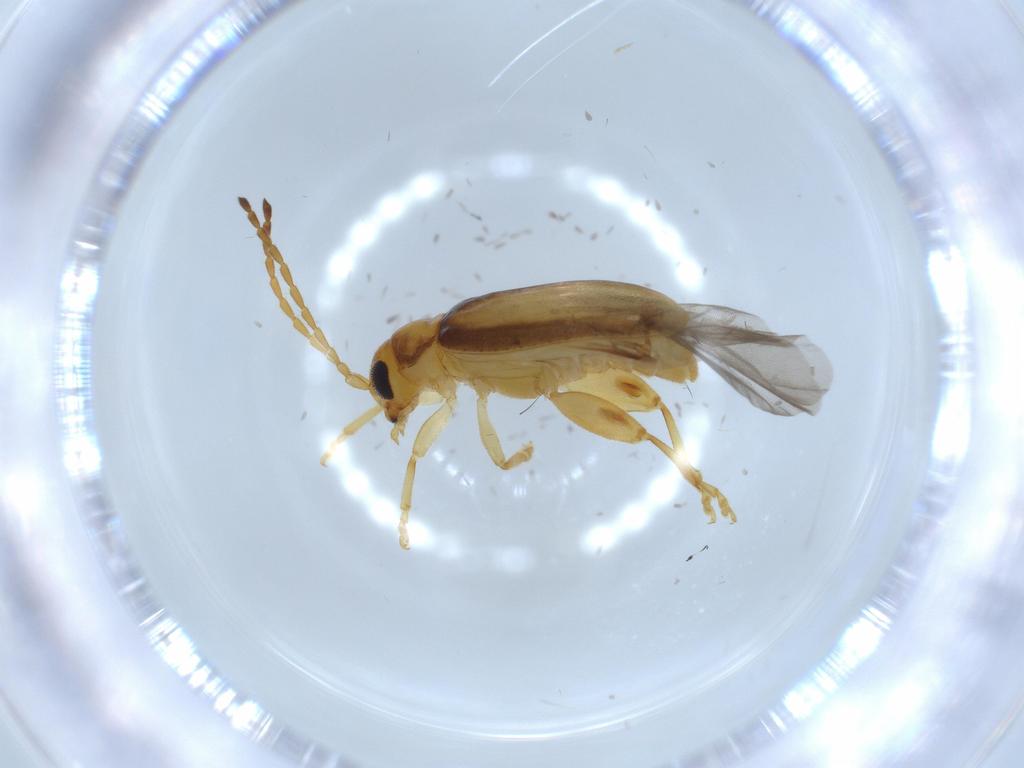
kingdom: Animalia
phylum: Arthropoda
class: Insecta
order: Coleoptera
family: Chrysomelidae
